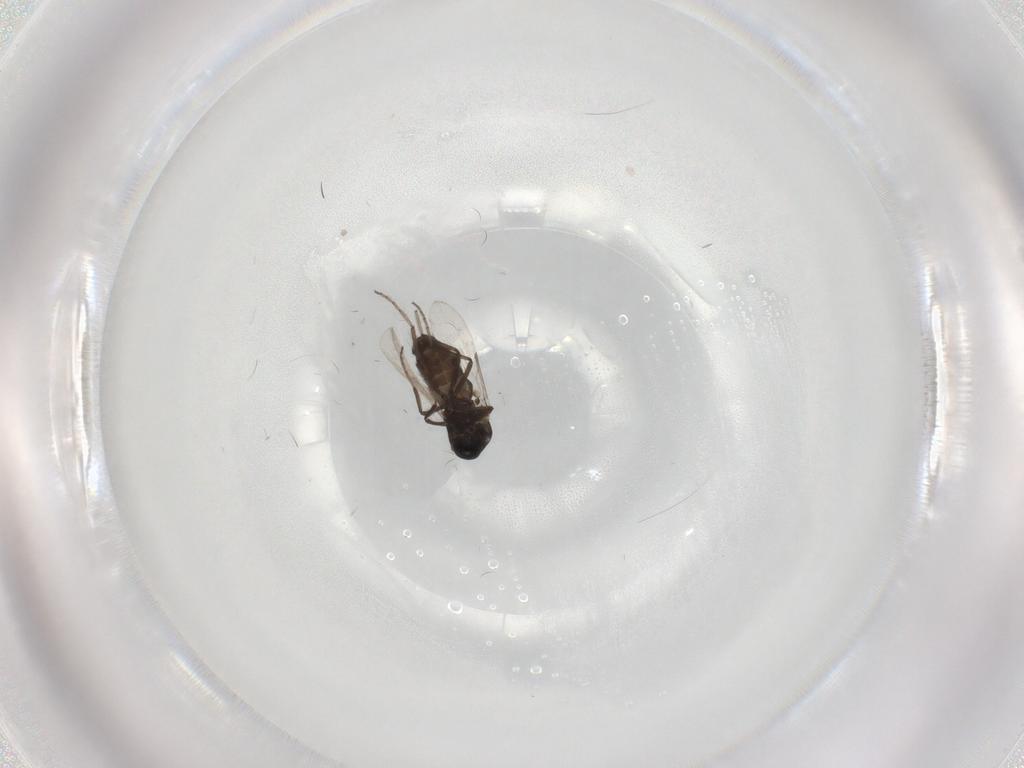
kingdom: Animalia
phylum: Arthropoda
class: Insecta
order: Diptera
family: Ceratopogonidae
